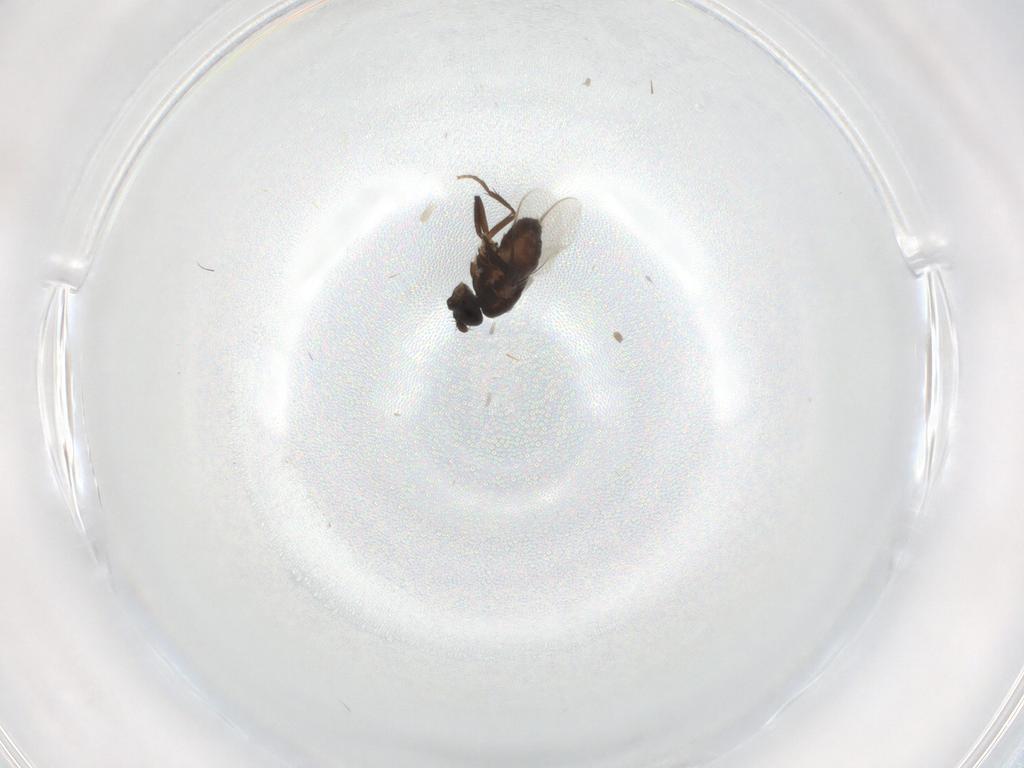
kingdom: Animalia
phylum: Arthropoda
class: Insecta
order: Diptera
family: Sphaeroceridae
